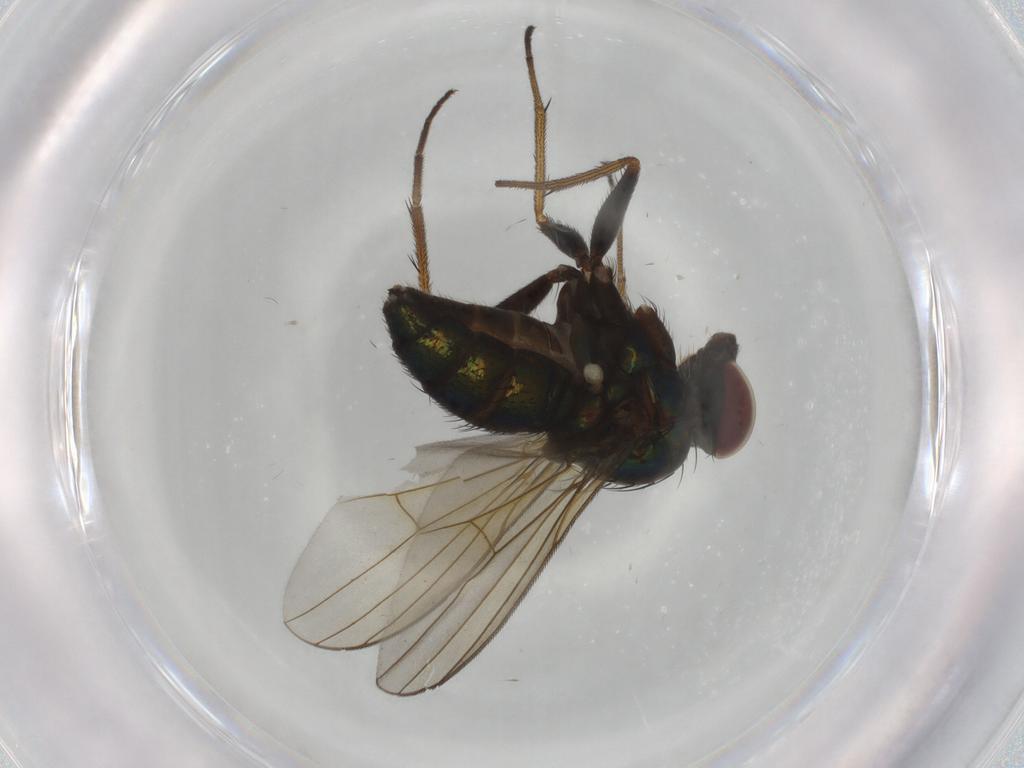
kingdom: Animalia
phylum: Arthropoda
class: Insecta
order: Diptera
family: Dolichopodidae
